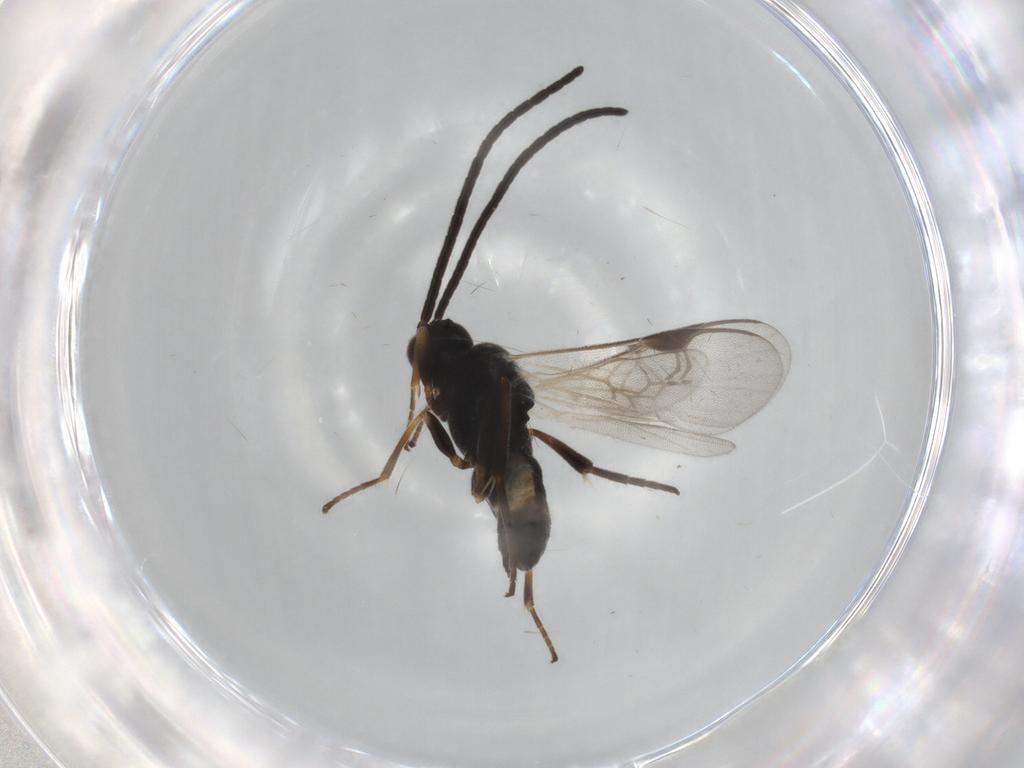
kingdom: Animalia
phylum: Arthropoda
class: Insecta
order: Hymenoptera
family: Braconidae
